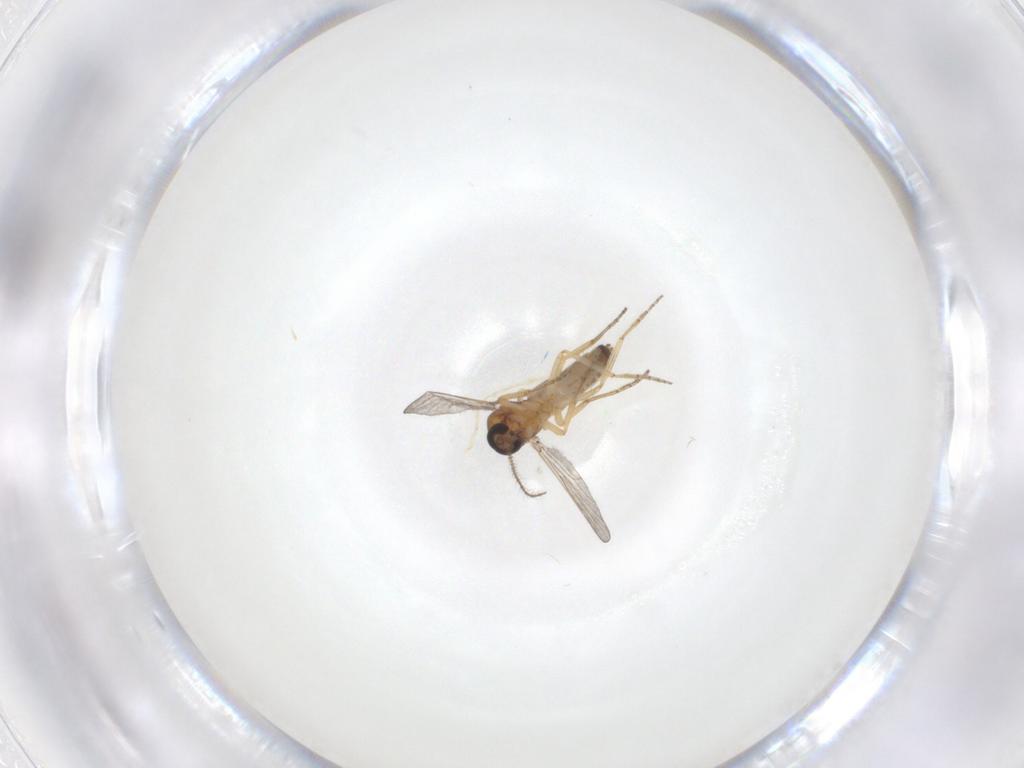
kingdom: Animalia
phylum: Arthropoda
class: Insecta
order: Diptera
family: Ceratopogonidae
